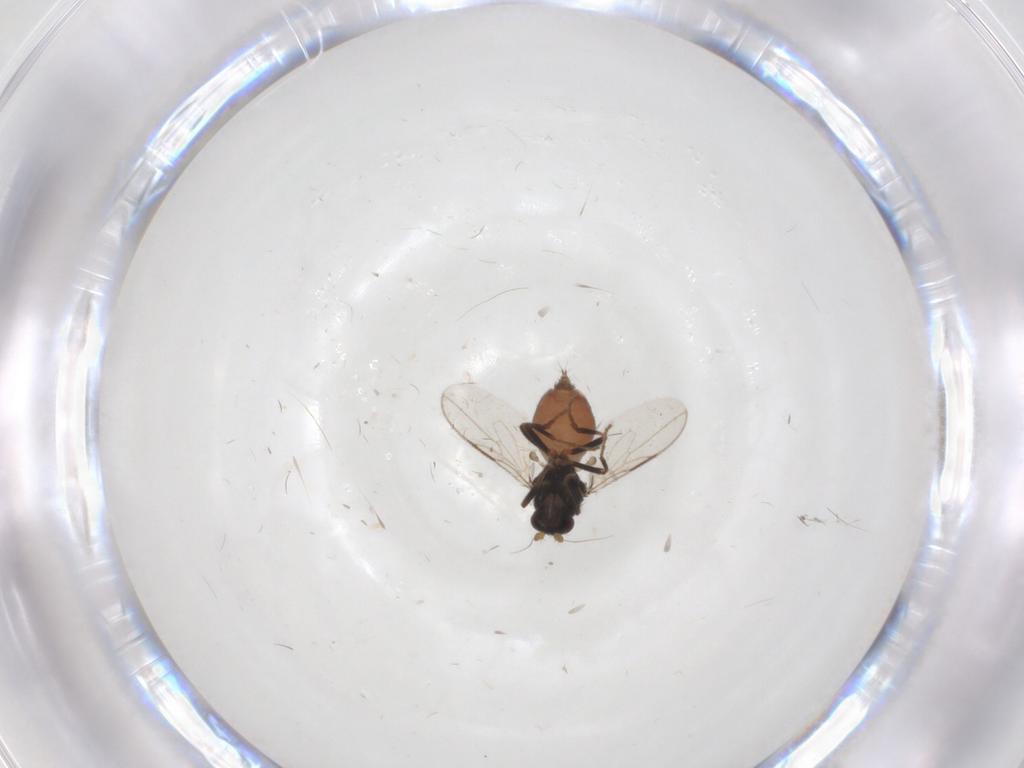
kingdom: Animalia
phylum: Arthropoda
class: Insecta
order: Diptera
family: Sphaeroceridae
